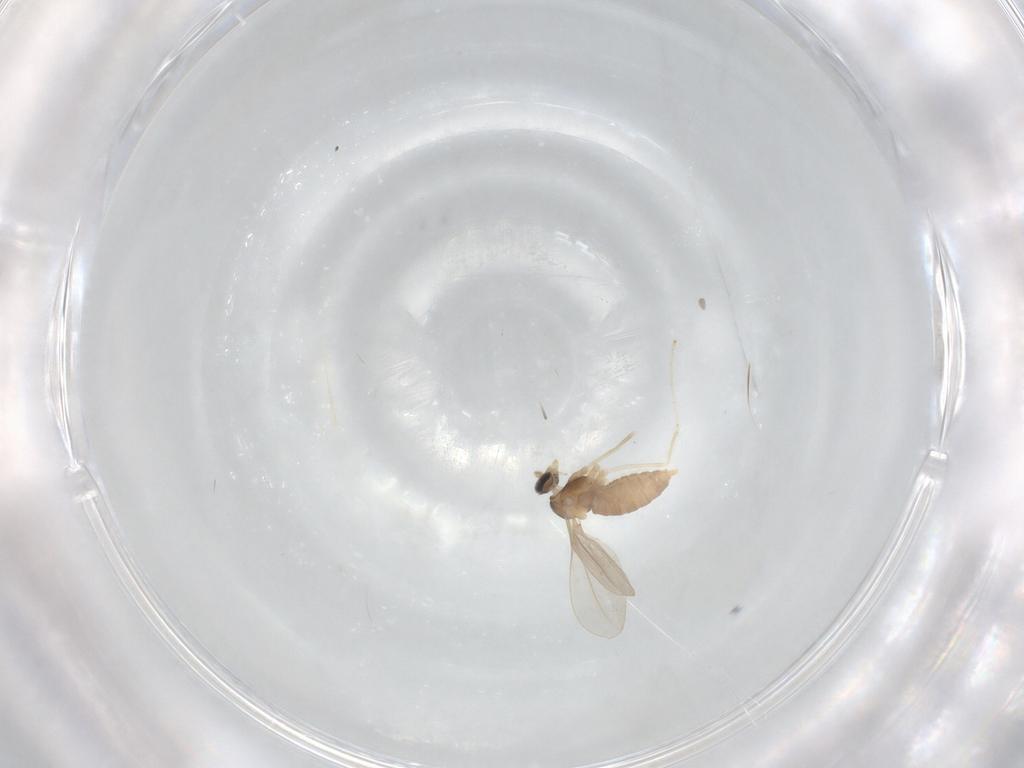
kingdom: Animalia
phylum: Arthropoda
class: Insecta
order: Diptera
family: Cecidomyiidae
